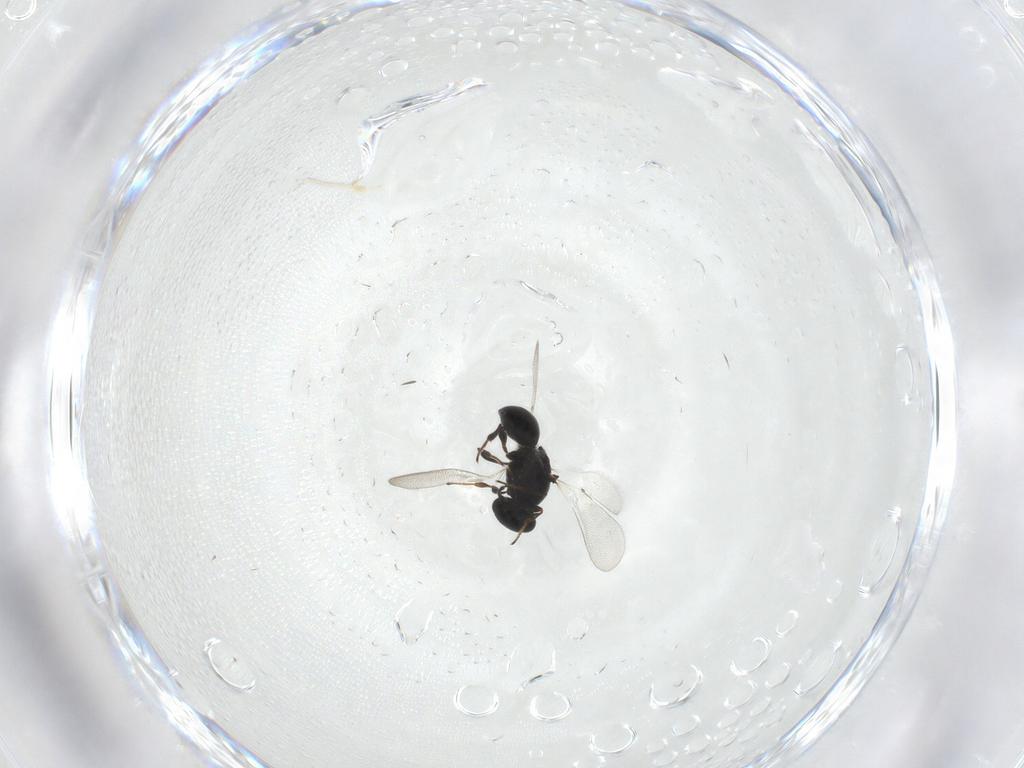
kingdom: Animalia
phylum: Arthropoda
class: Insecta
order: Hymenoptera
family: Platygastridae
